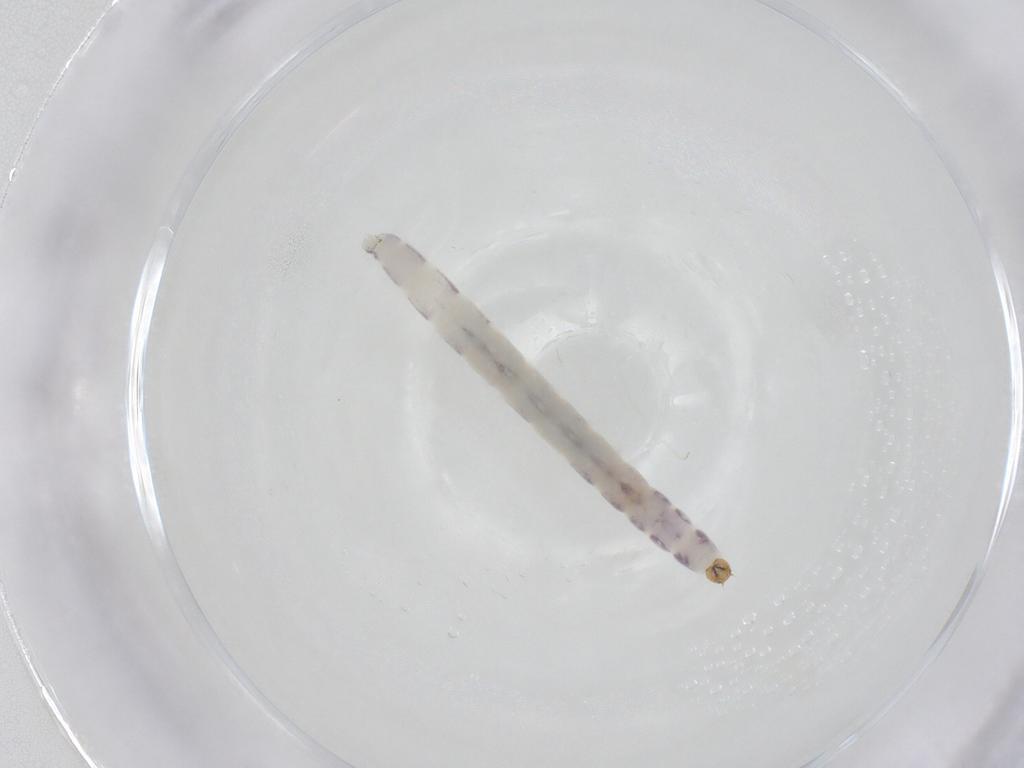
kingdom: Animalia
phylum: Arthropoda
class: Insecta
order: Diptera
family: Chironomidae
